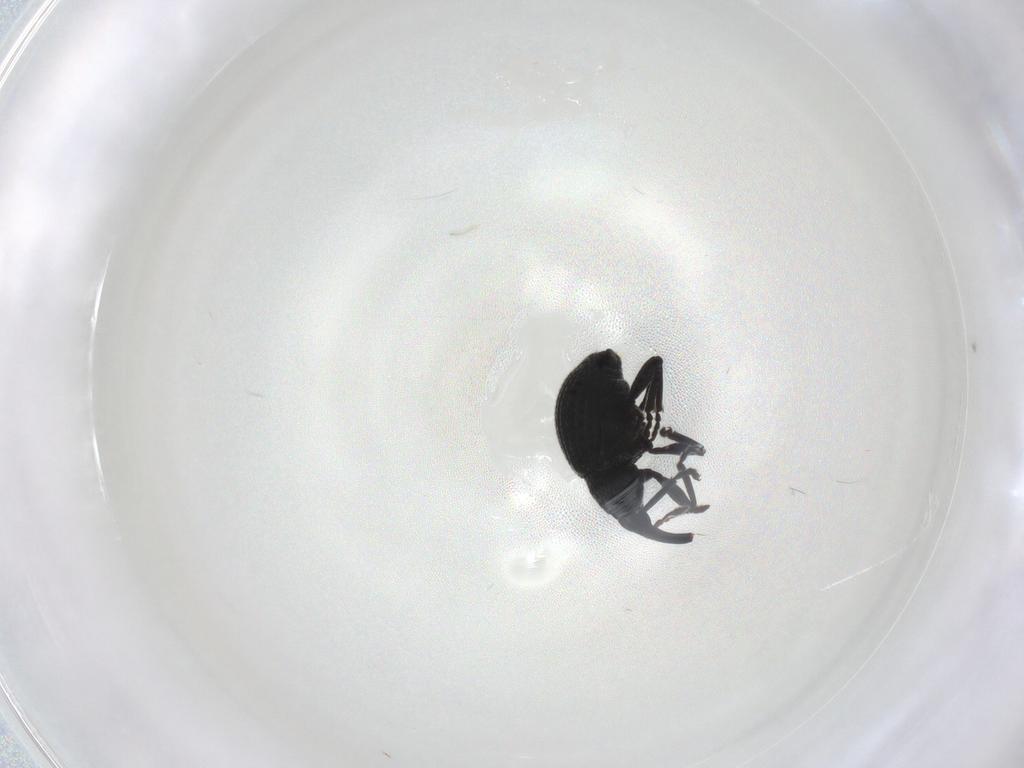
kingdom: Animalia
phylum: Arthropoda
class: Insecta
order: Coleoptera
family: Brentidae
